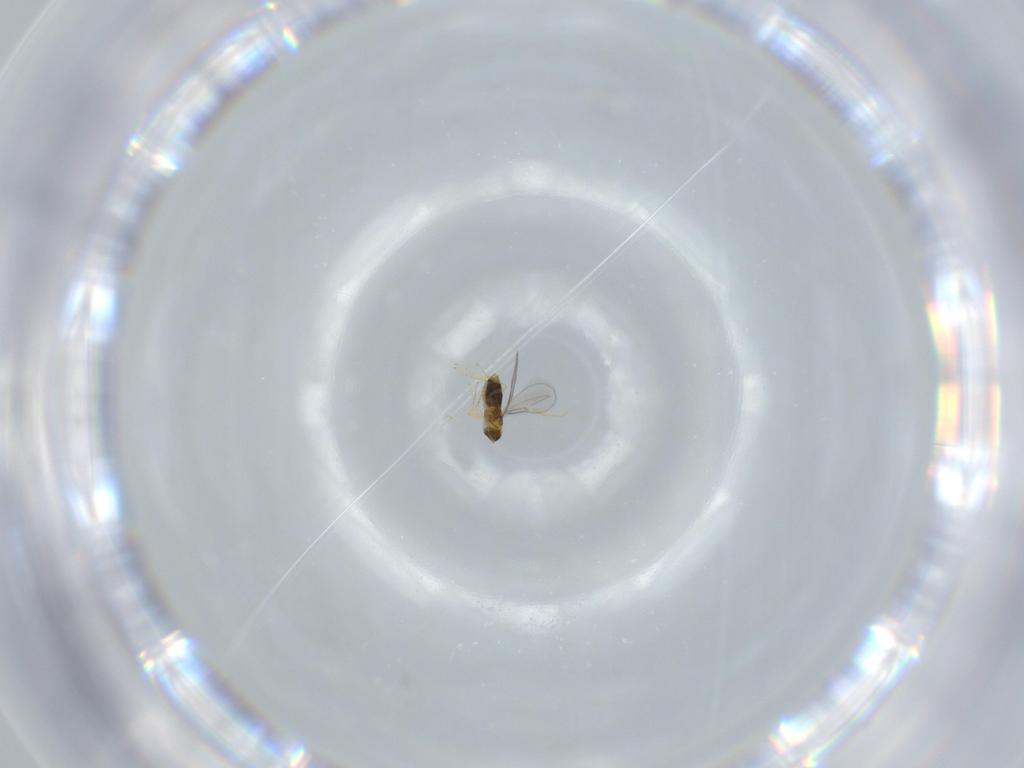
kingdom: Animalia
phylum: Arthropoda
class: Insecta
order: Hymenoptera
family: Aphelinidae
